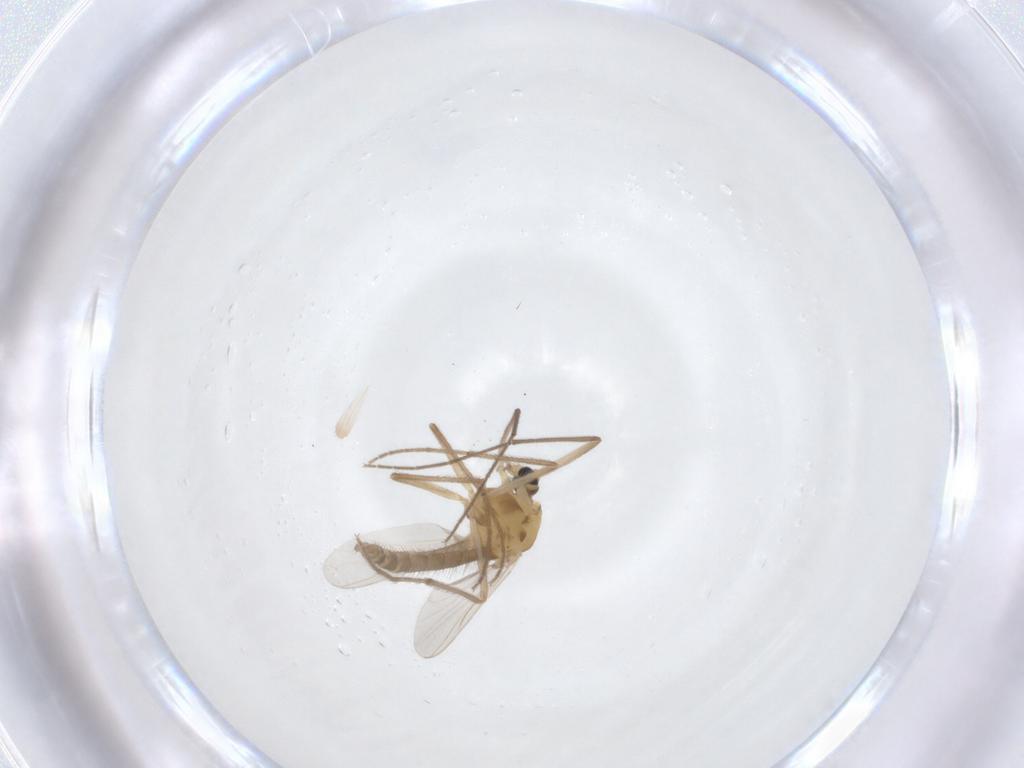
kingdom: Animalia
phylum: Arthropoda
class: Insecta
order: Diptera
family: Chironomidae
